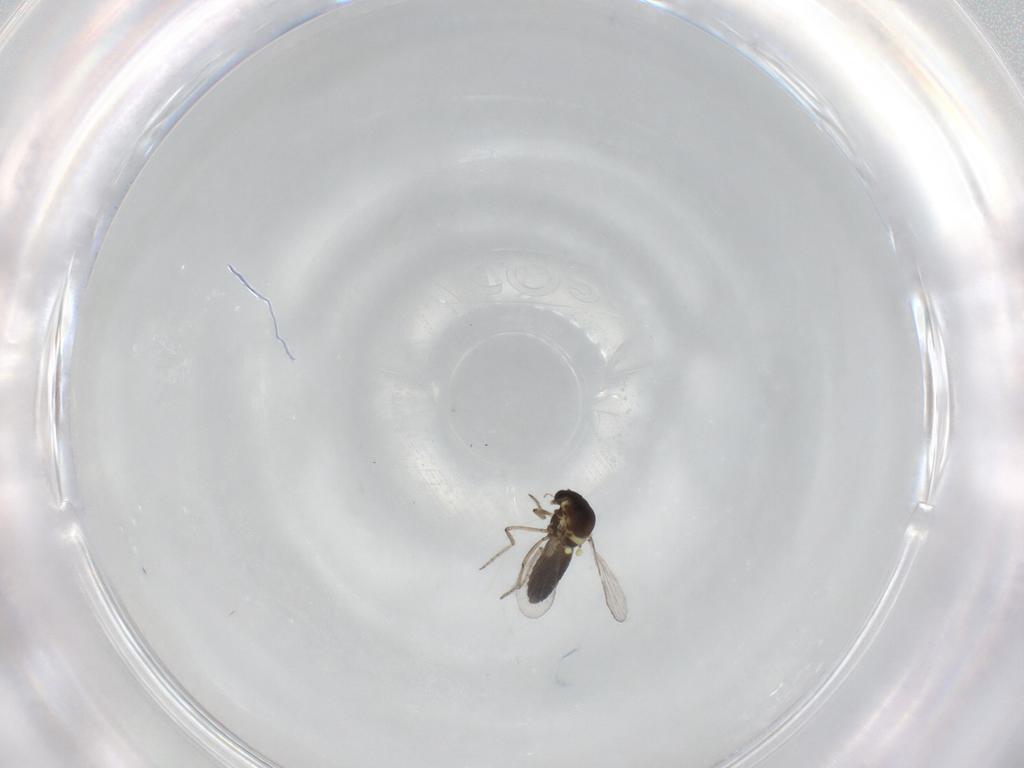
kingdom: Animalia
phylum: Arthropoda
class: Insecta
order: Diptera
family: Ceratopogonidae
